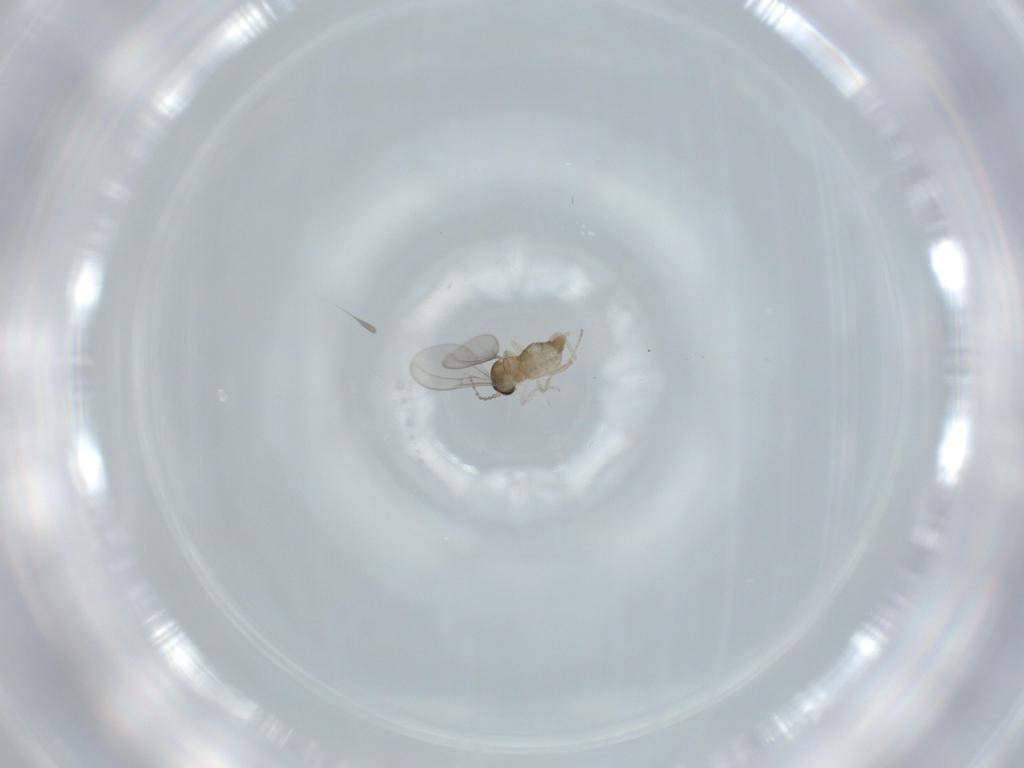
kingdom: Animalia
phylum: Arthropoda
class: Insecta
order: Diptera
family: Cecidomyiidae
